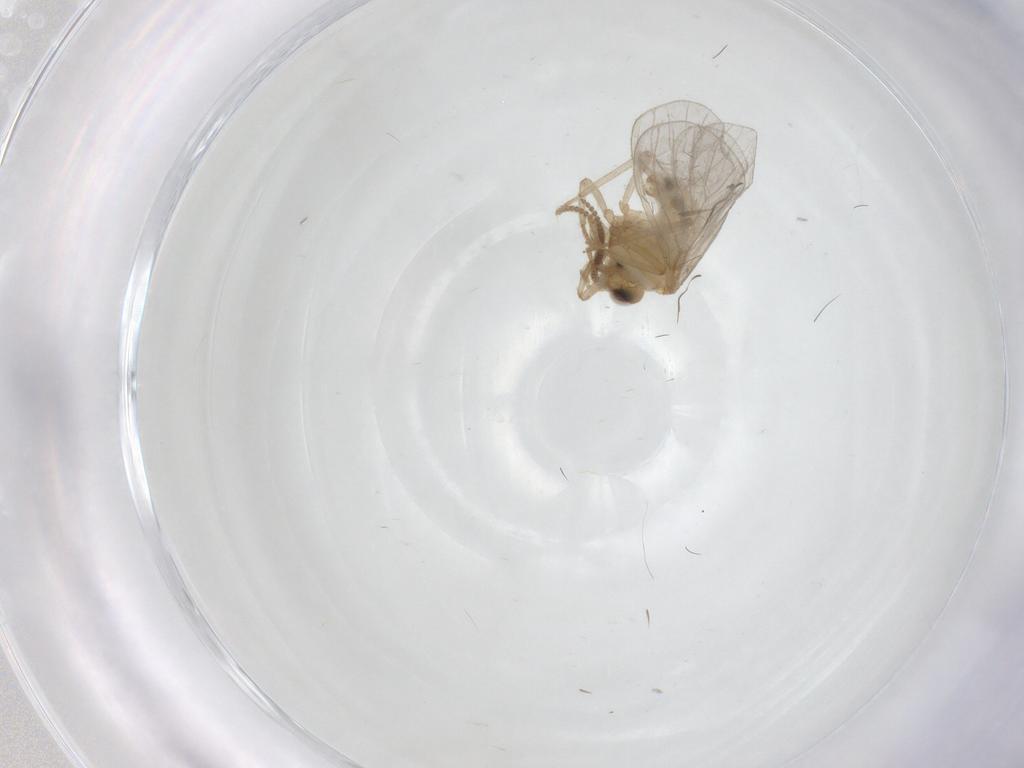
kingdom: Animalia
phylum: Arthropoda
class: Insecta
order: Neuroptera
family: Coniopterygidae
